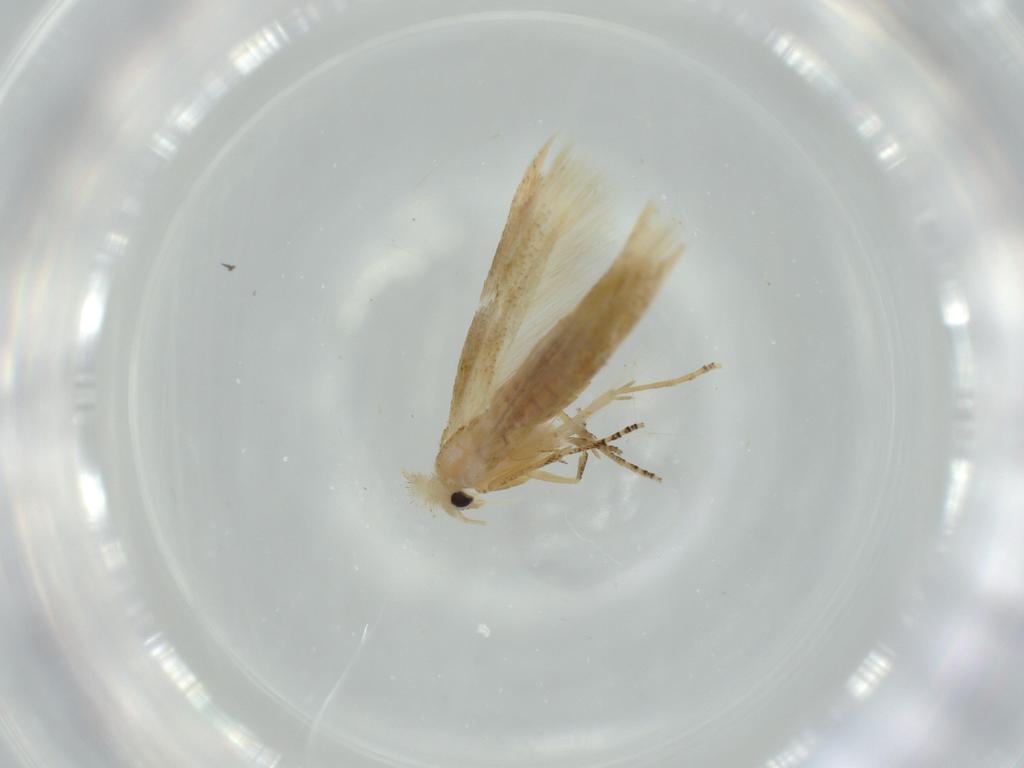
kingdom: Animalia
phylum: Arthropoda
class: Insecta
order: Lepidoptera
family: Bucculatricidae
